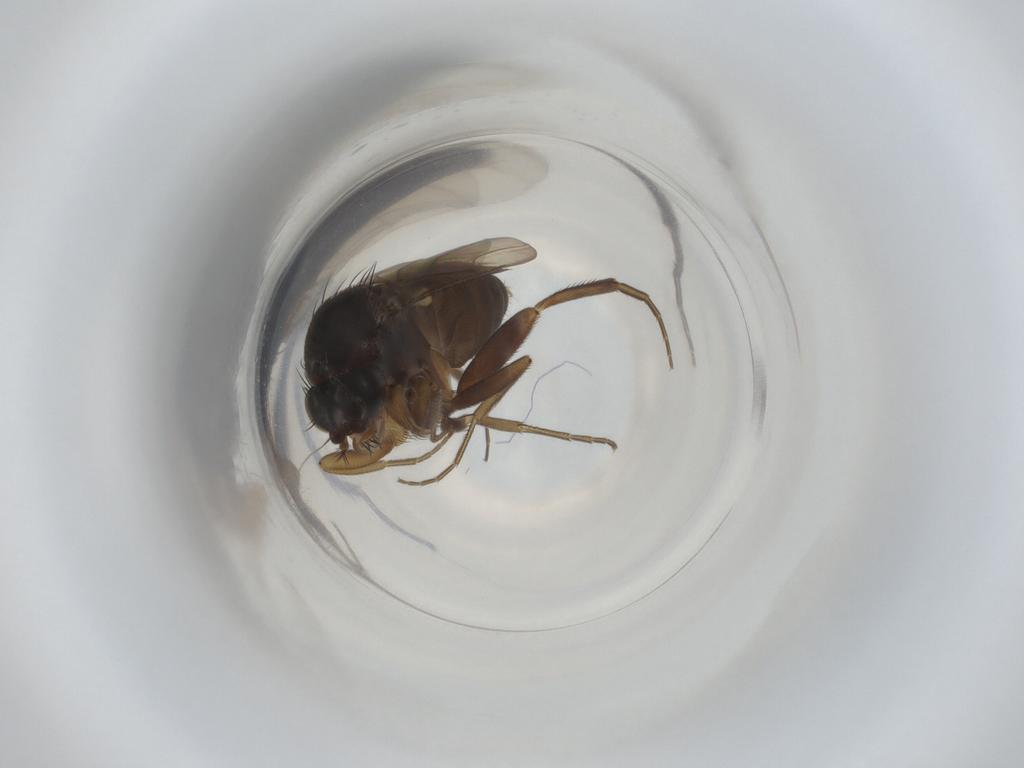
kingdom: Animalia
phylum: Arthropoda
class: Insecta
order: Diptera
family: Phoridae
